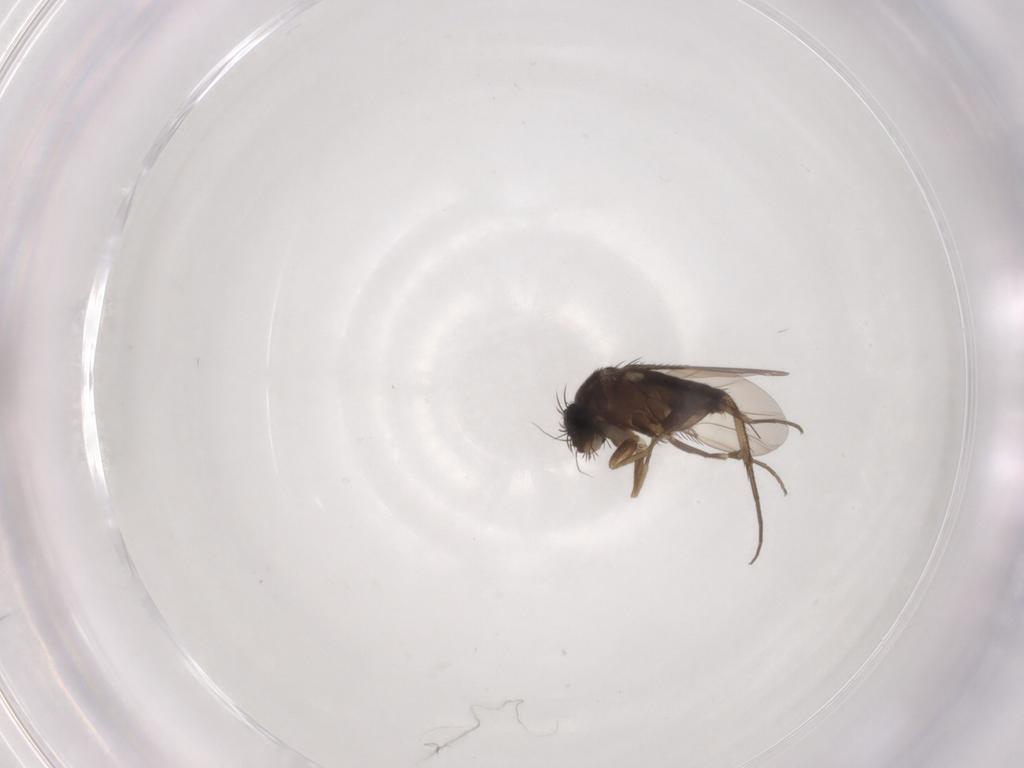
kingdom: Animalia
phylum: Arthropoda
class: Insecta
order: Diptera
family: Phoridae
